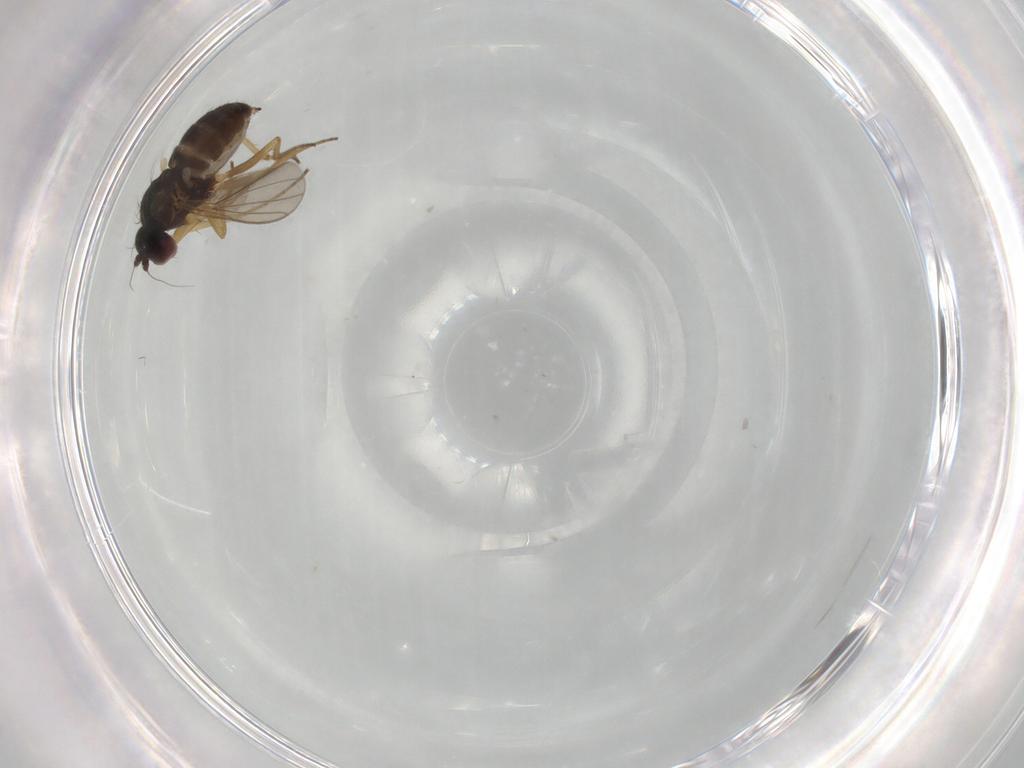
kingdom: Animalia
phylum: Arthropoda
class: Insecta
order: Diptera
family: Dolichopodidae
